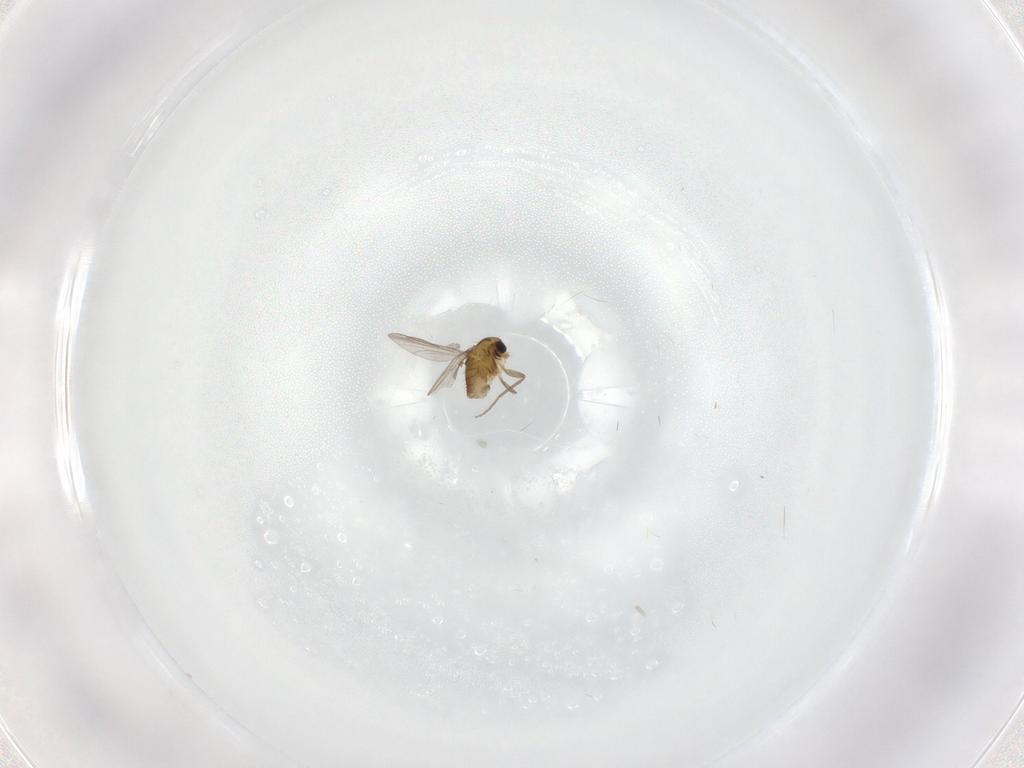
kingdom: Animalia
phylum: Arthropoda
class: Insecta
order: Diptera
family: Chironomidae
